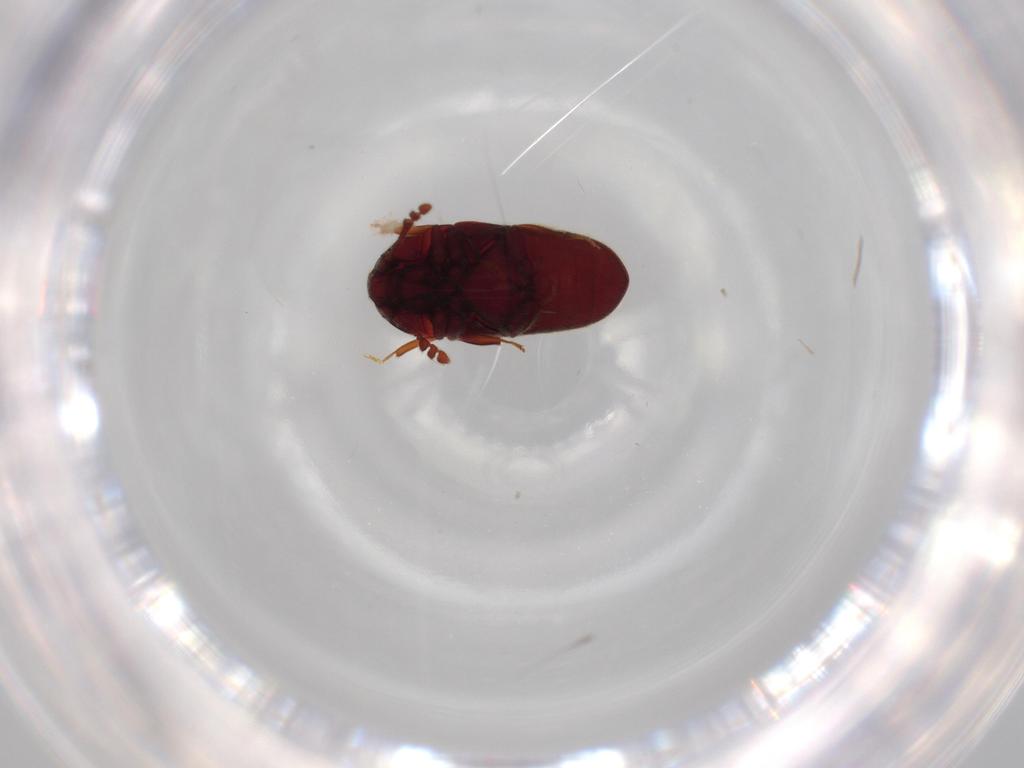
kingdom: Animalia
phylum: Arthropoda
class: Insecta
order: Coleoptera
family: Throscidae
